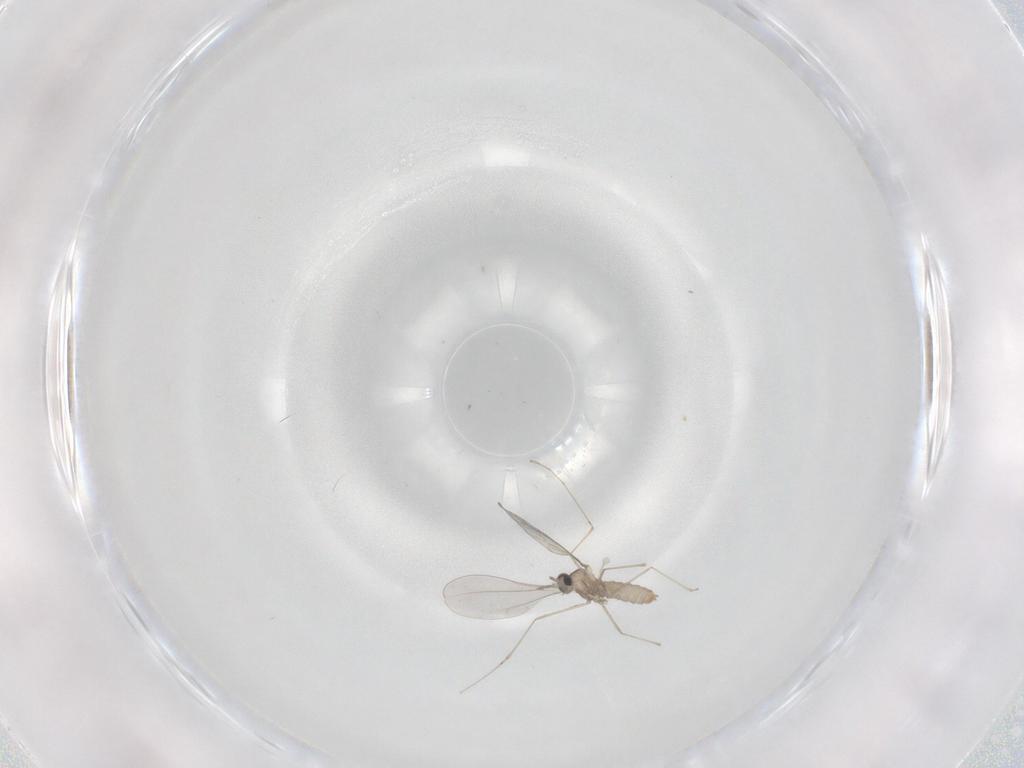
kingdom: Animalia
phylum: Arthropoda
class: Insecta
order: Diptera
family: Cecidomyiidae
